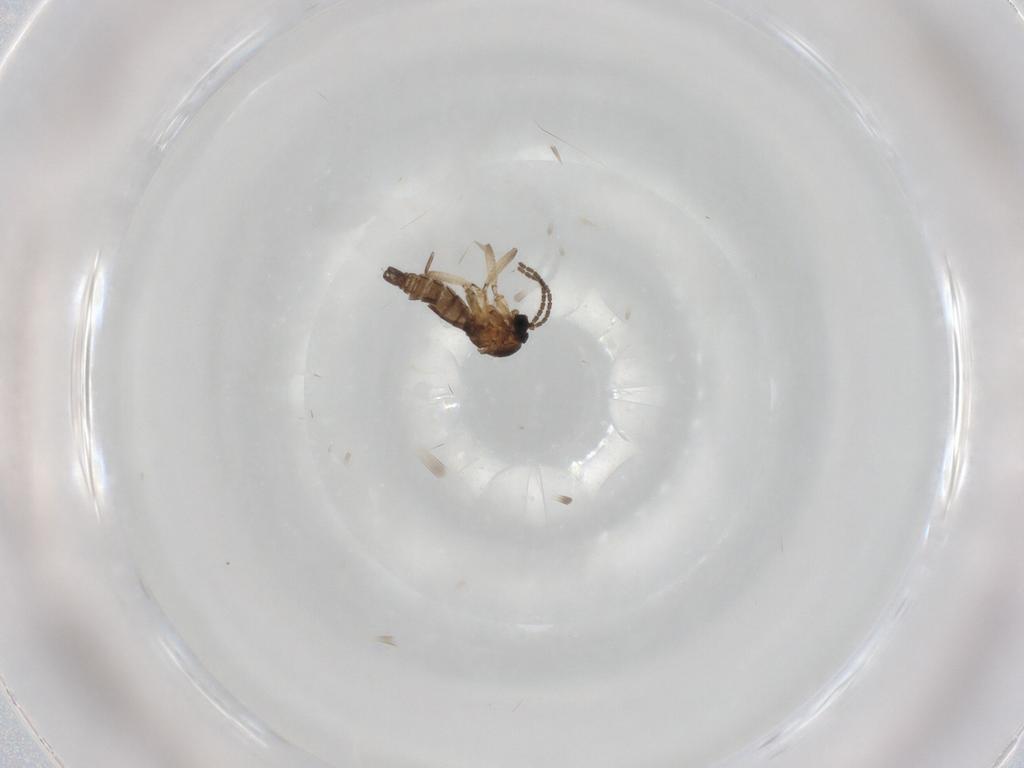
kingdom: Animalia
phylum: Arthropoda
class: Insecta
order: Diptera
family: Sciaridae
